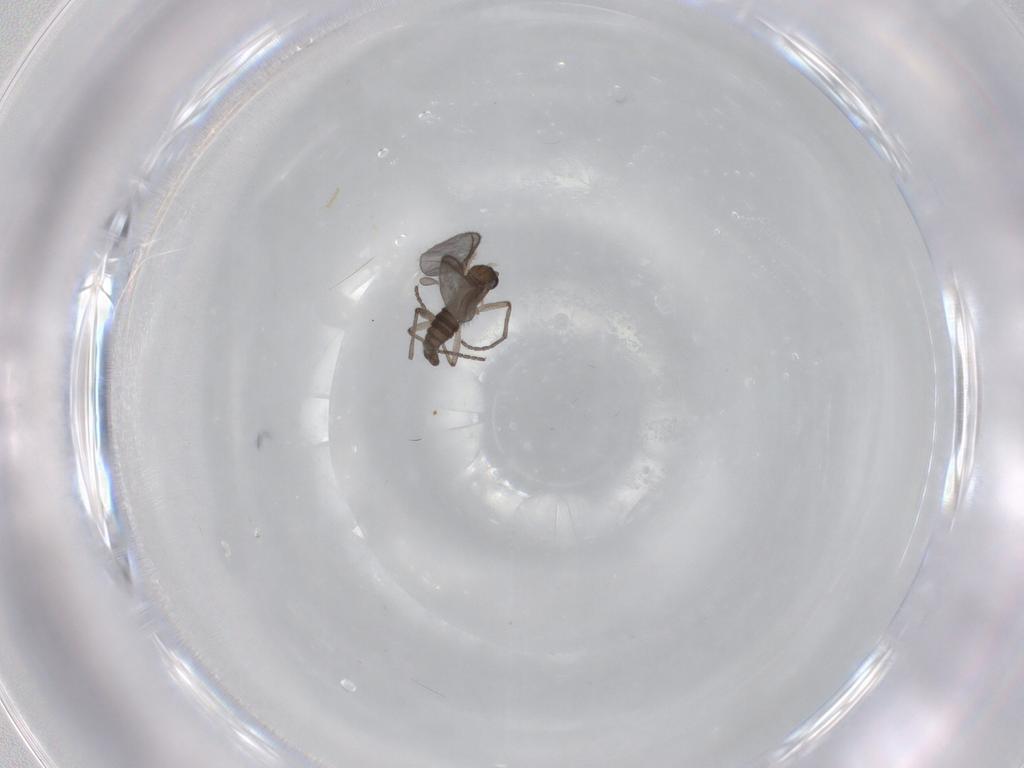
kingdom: Animalia
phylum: Arthropoda
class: Insecta
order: Diptera
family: Sciaridae
